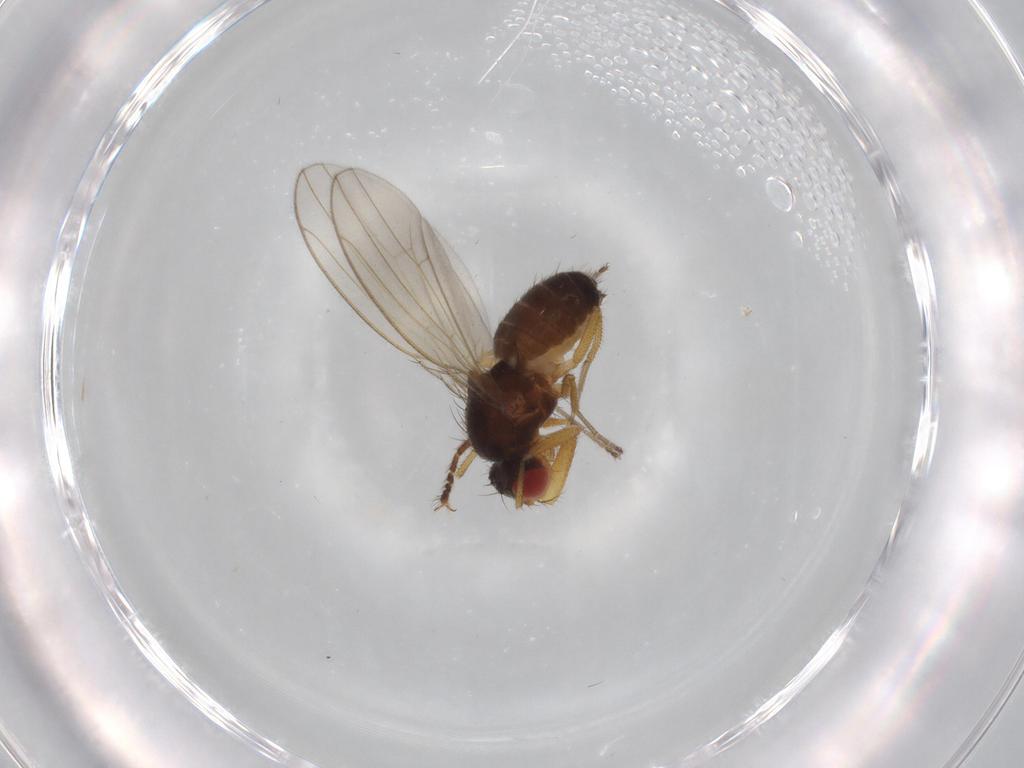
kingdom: Animalia
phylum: Arthropoda
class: Insecta
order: Diptera
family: Drosophilidae
